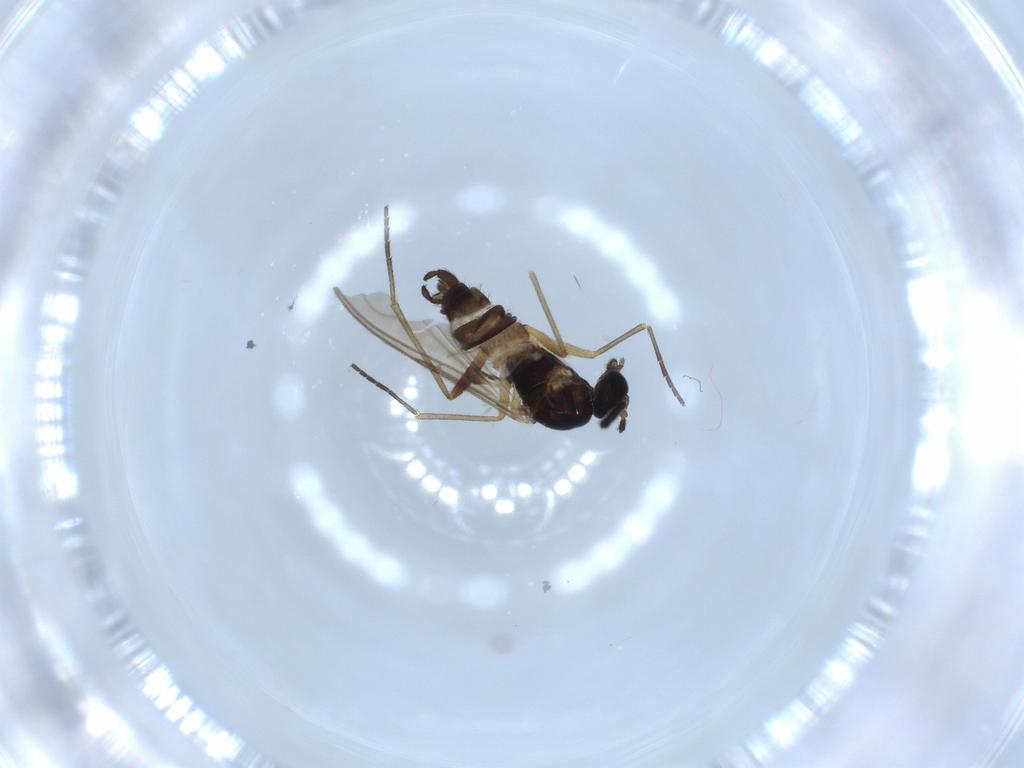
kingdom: Animalia
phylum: Arthropoda
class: Insecta
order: Diptera
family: Sciaridae
